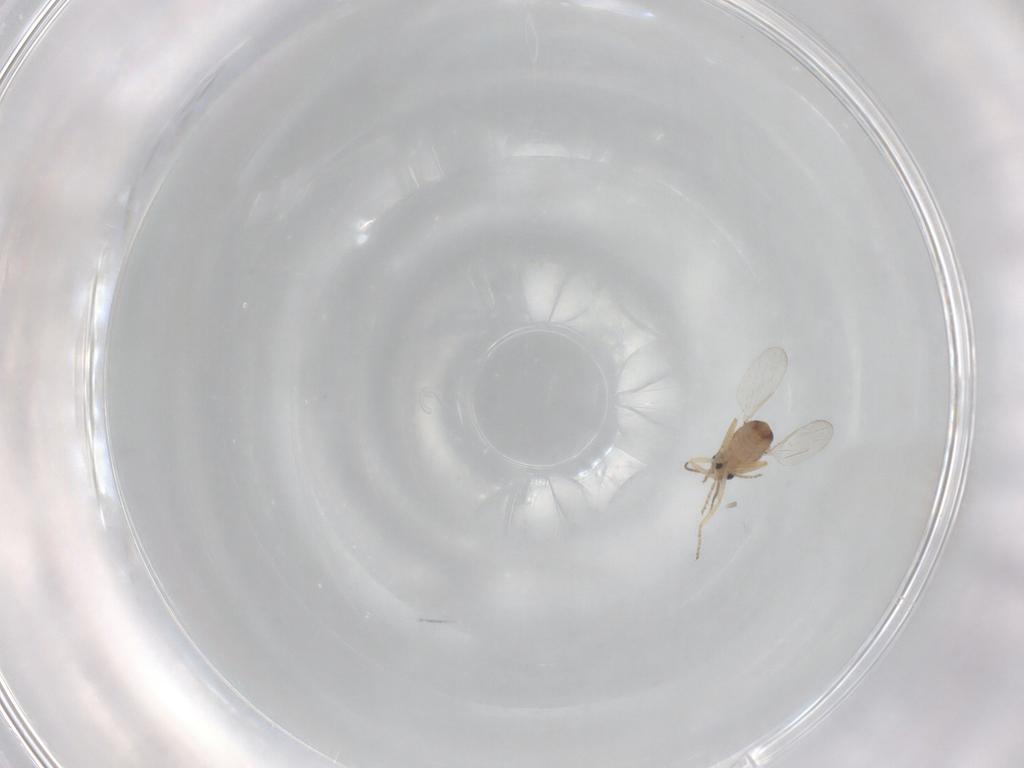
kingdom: Animalia
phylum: Arthropoda
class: Insecta
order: Diptera
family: Ceratopogonidae
